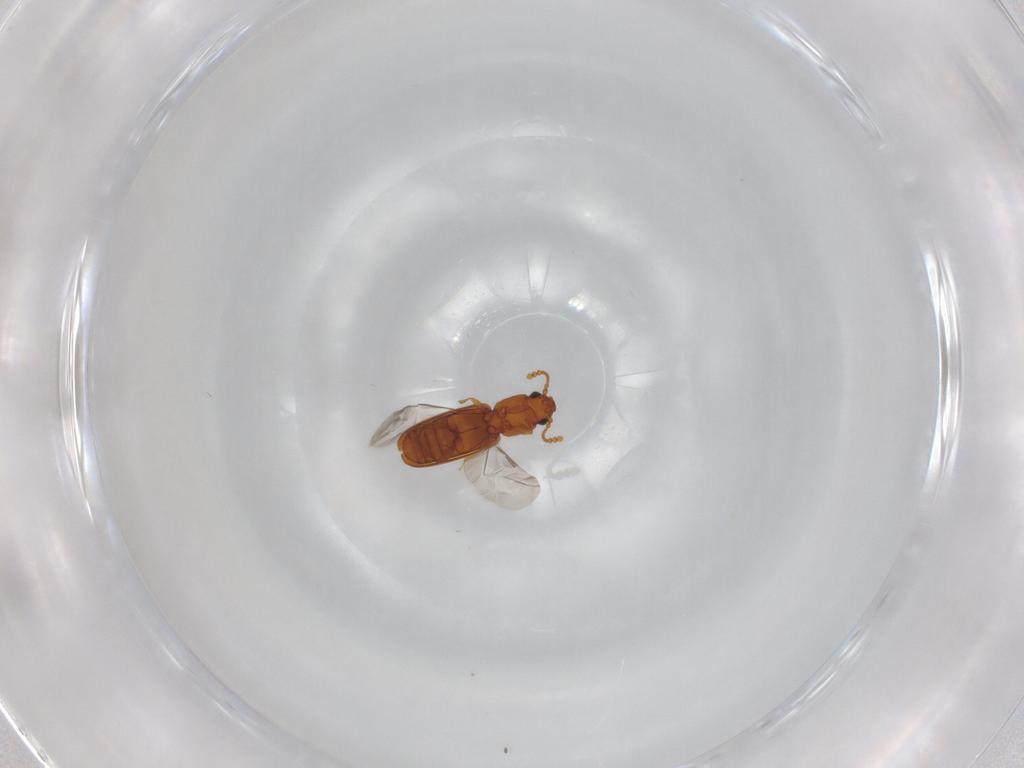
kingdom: Animalia
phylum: Arthropoda
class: Insecta
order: Coleoptera
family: Laemophloeidae
